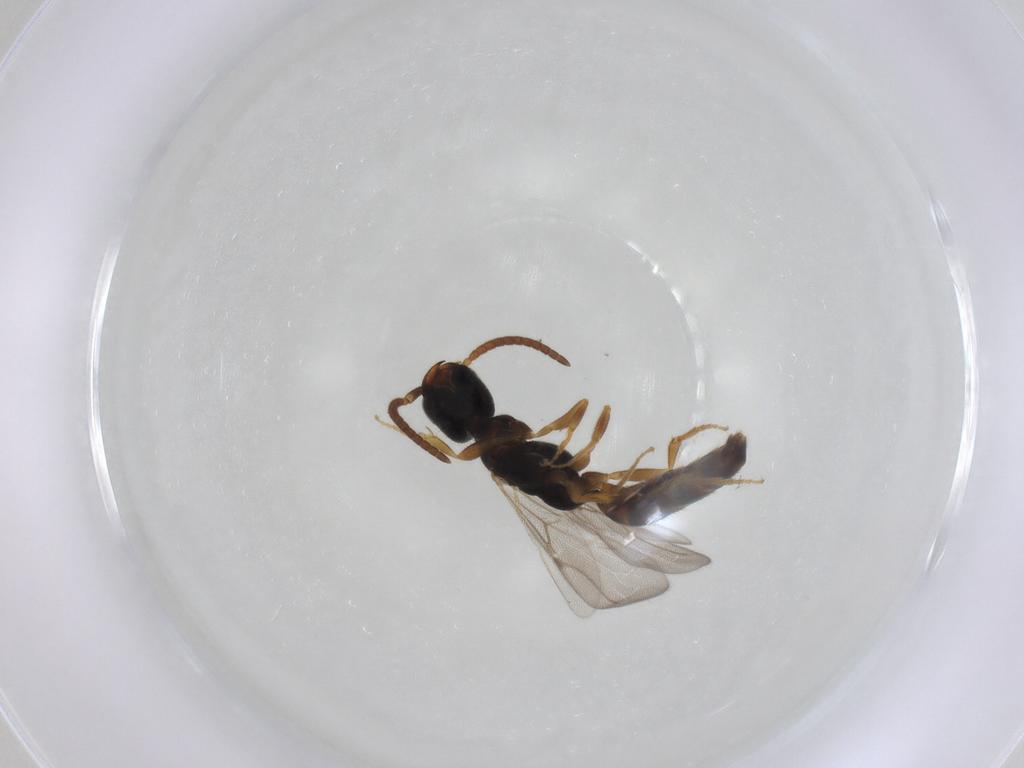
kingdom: Animalia
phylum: Arthropoda
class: Insecta
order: Hymenoptera
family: Bethylidae
